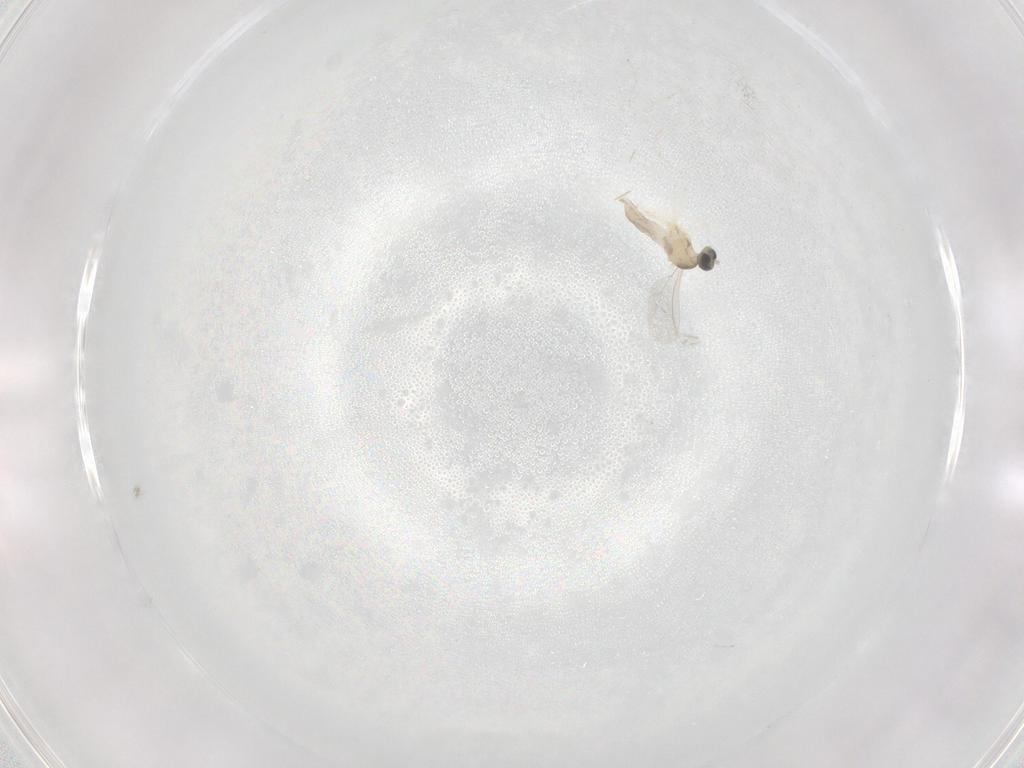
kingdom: Animalia
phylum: Arthropoda
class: Insecta
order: Diptera
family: Cecidomyiidae
